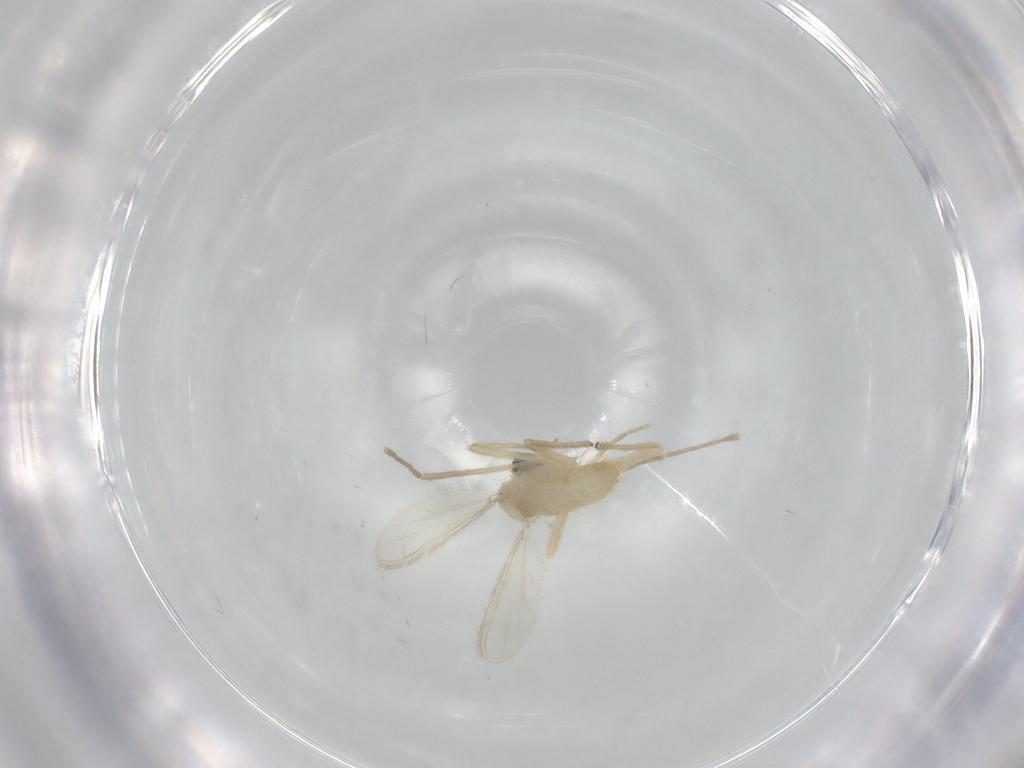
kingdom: Animalia
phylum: Arthropoda
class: Insecta
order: Diptera
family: Chironomidae
